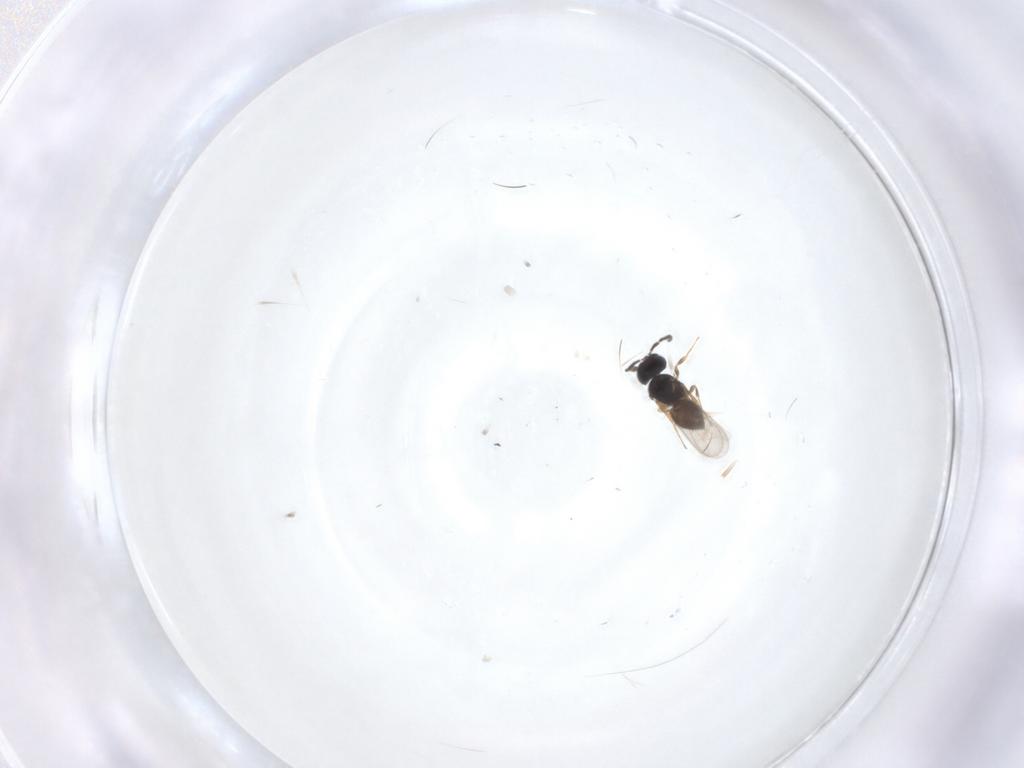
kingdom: Animalia
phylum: Arthropoda
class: Insecta
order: Hymenoptera
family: Scelionidae
